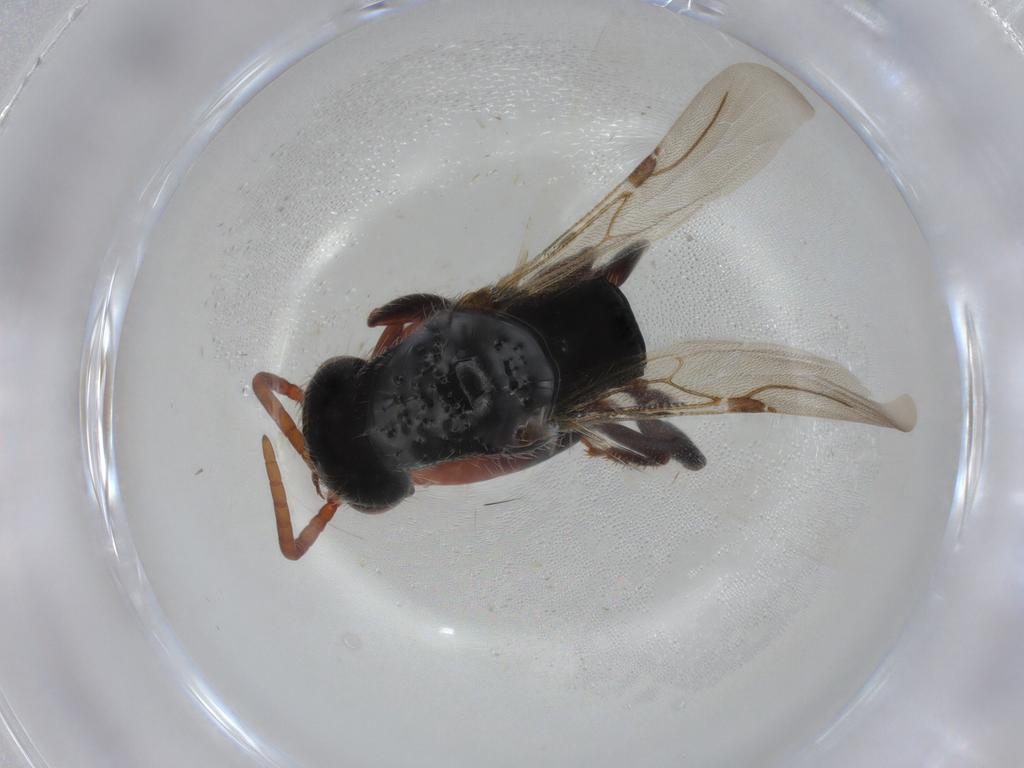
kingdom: Animalia
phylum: Arthropoda
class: Insecta
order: Hymenoptera
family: Bethylidae
